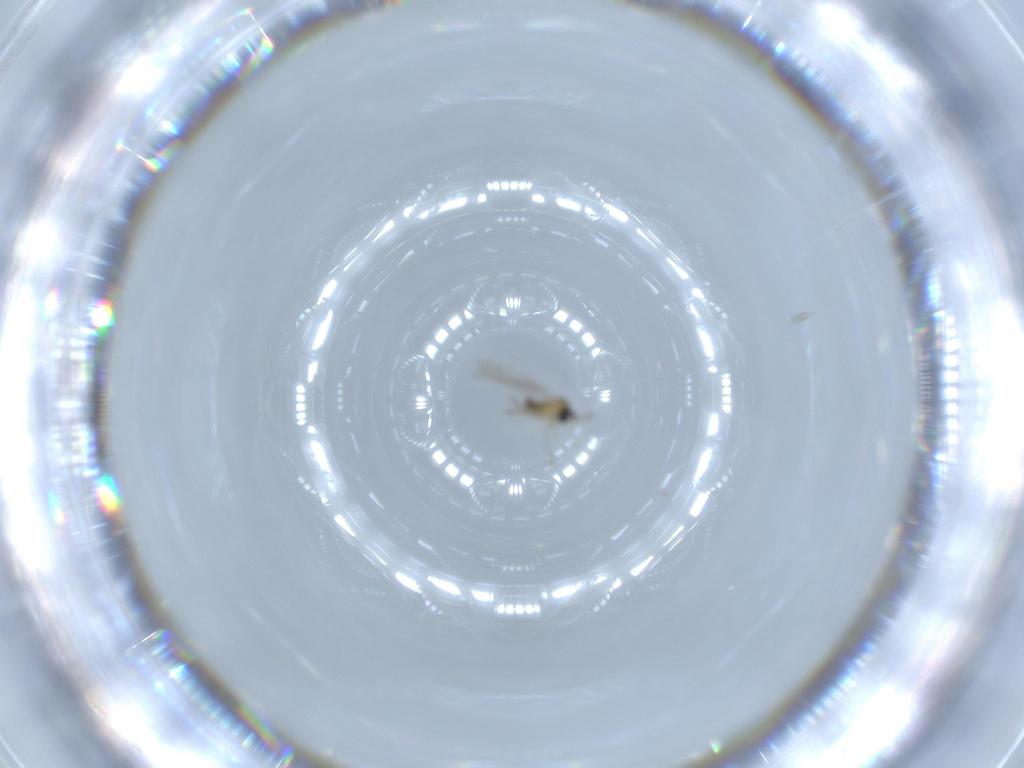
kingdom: Animalia
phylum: Arthropoda
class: Insecta
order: Diptera
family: Cecidomyiidae
